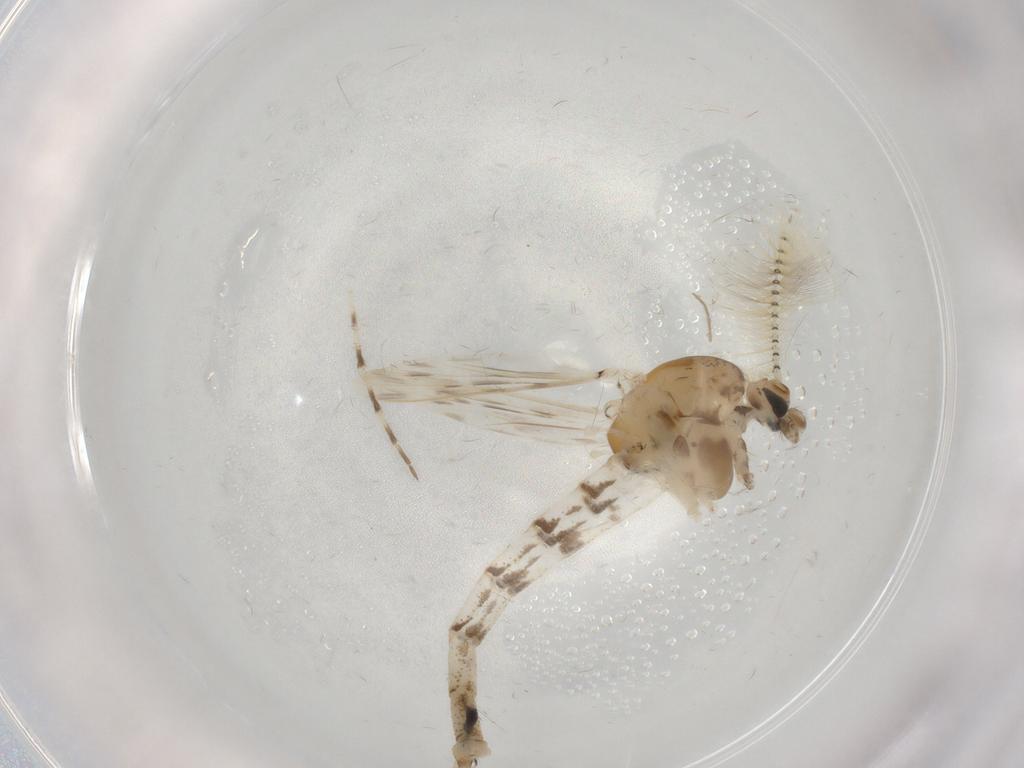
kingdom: Animalia
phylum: Arthropoda
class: Insecta
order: Diptera
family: Chaoboridae
